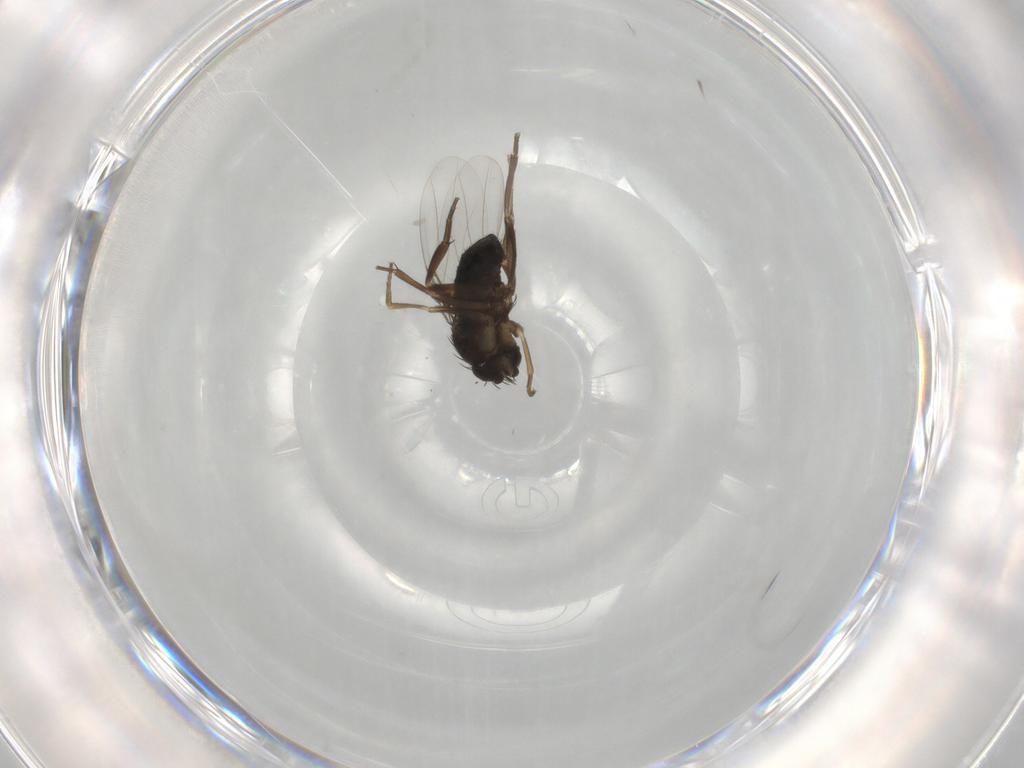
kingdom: Animalia
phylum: Arthropoda
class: Insecta
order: Diptera
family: Phoridae
